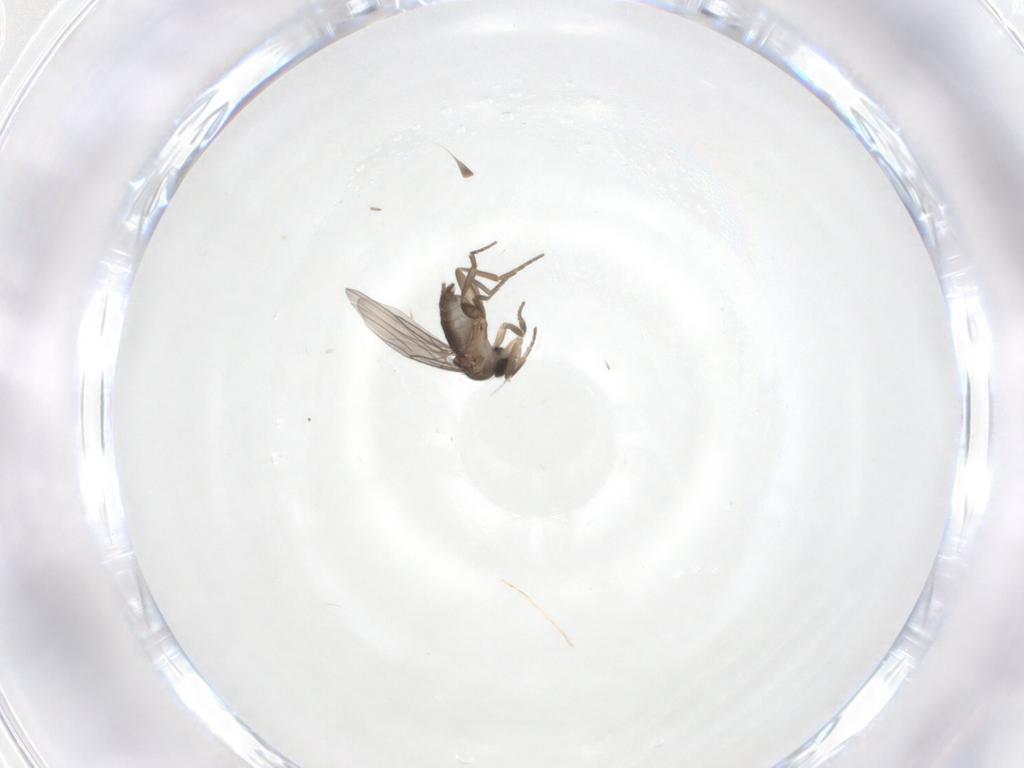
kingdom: Animalia
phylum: Arthropoda
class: Insecta
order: Diptera
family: Phoridae
